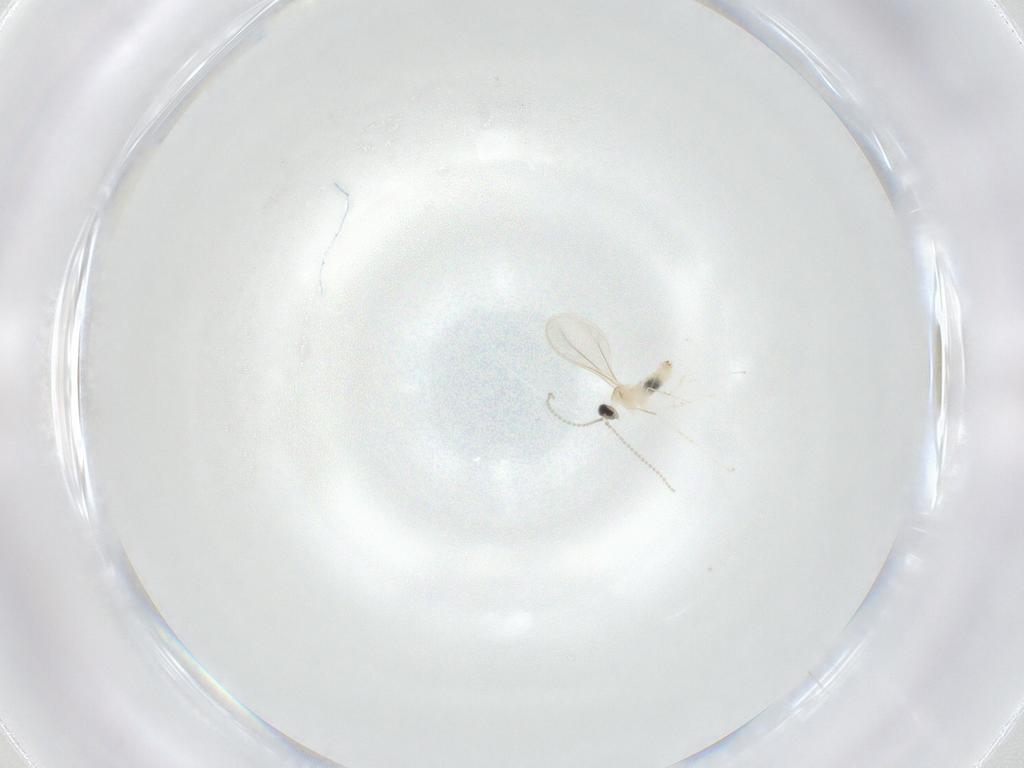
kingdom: Animalia
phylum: Arthropoda
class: Insecta
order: Diptera
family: Cecidomyiidae
